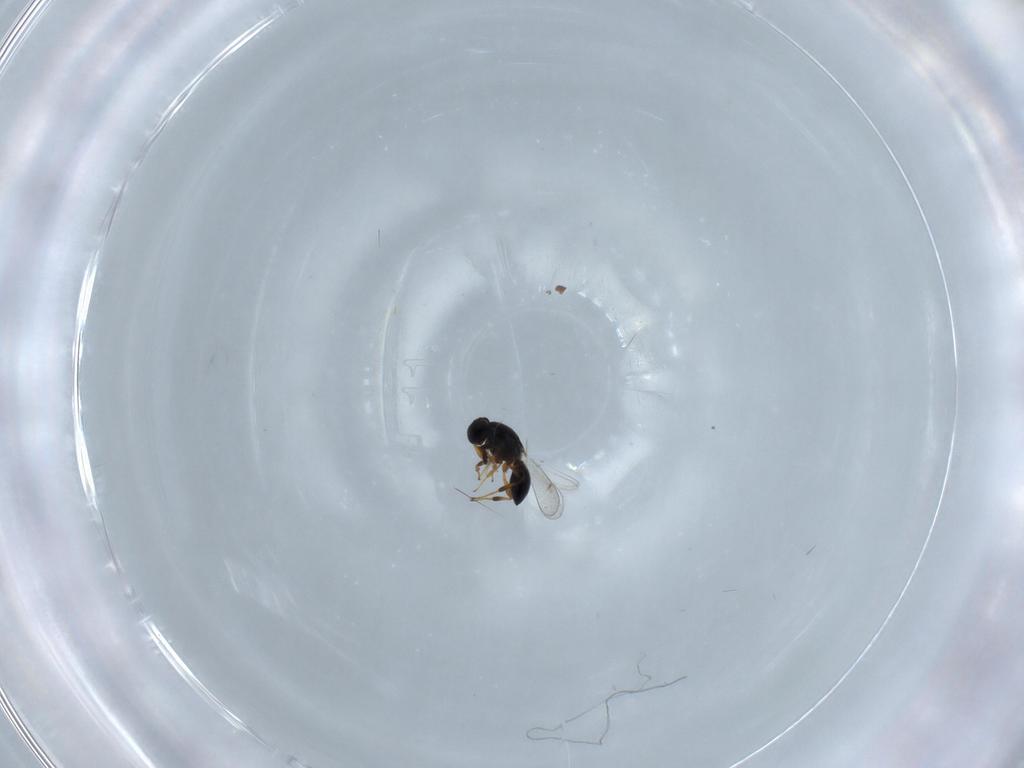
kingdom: Animalia
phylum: Arthropoda
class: Insecta
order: Hymenoptera
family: Platygastridae
